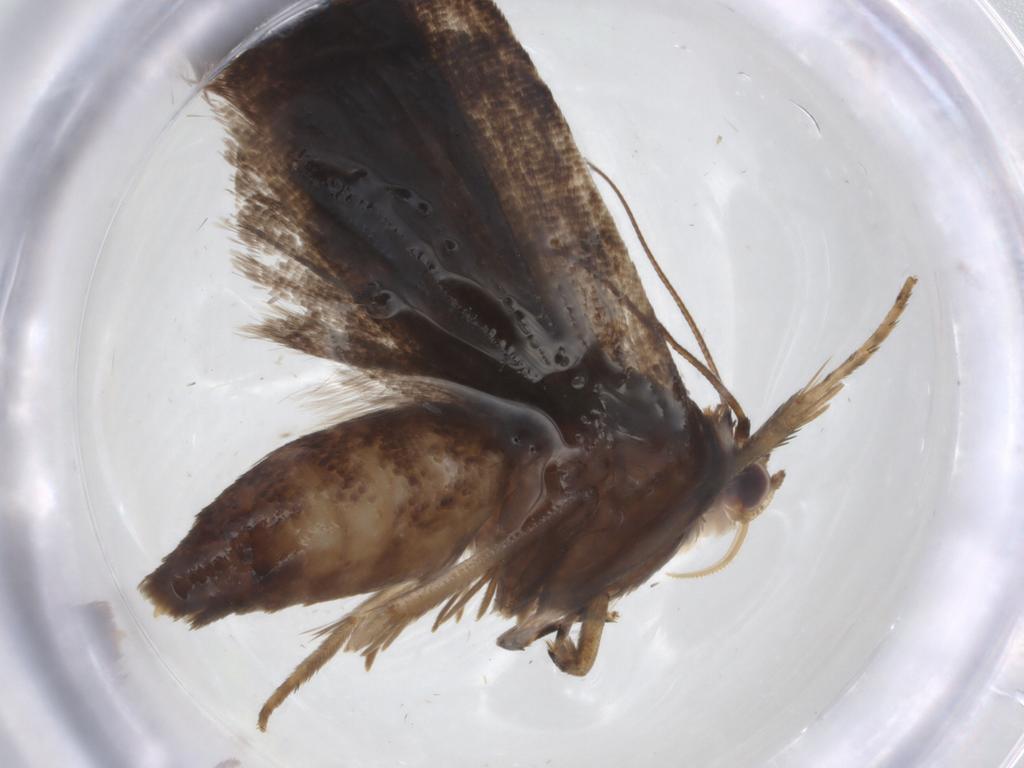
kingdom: Animalia
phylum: Arthropoda
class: Insecta
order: Lepidoptera
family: Tortricidae
